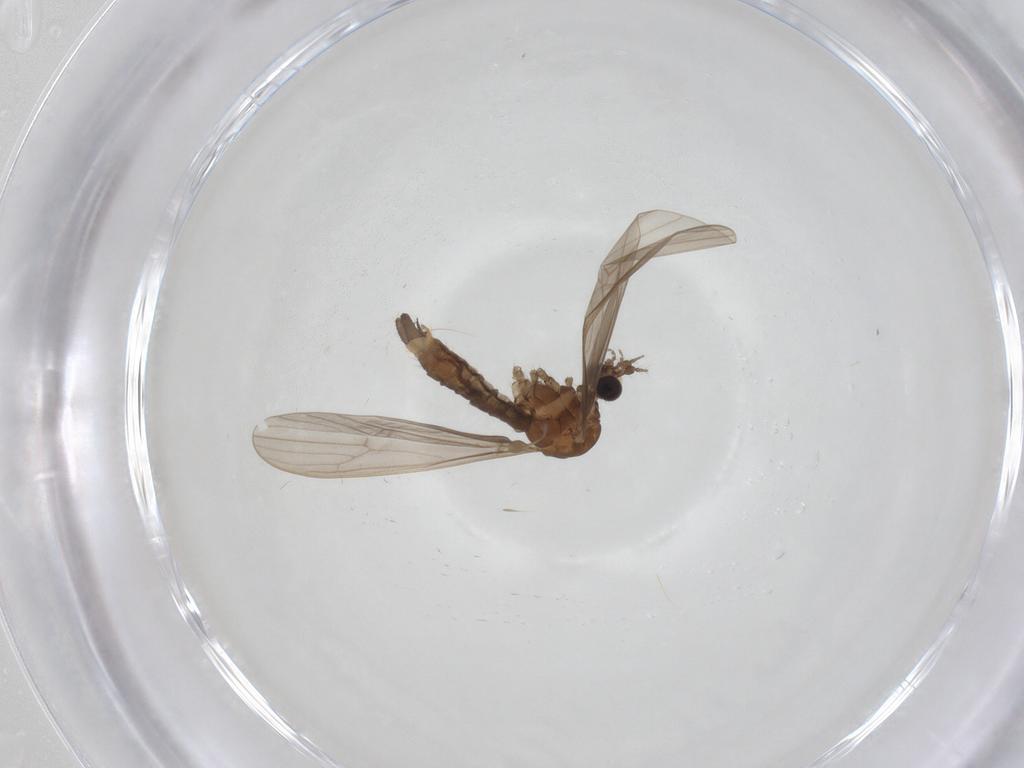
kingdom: Animalia
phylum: Arthropoda
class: Insecta
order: Diptera
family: Limoniidae
